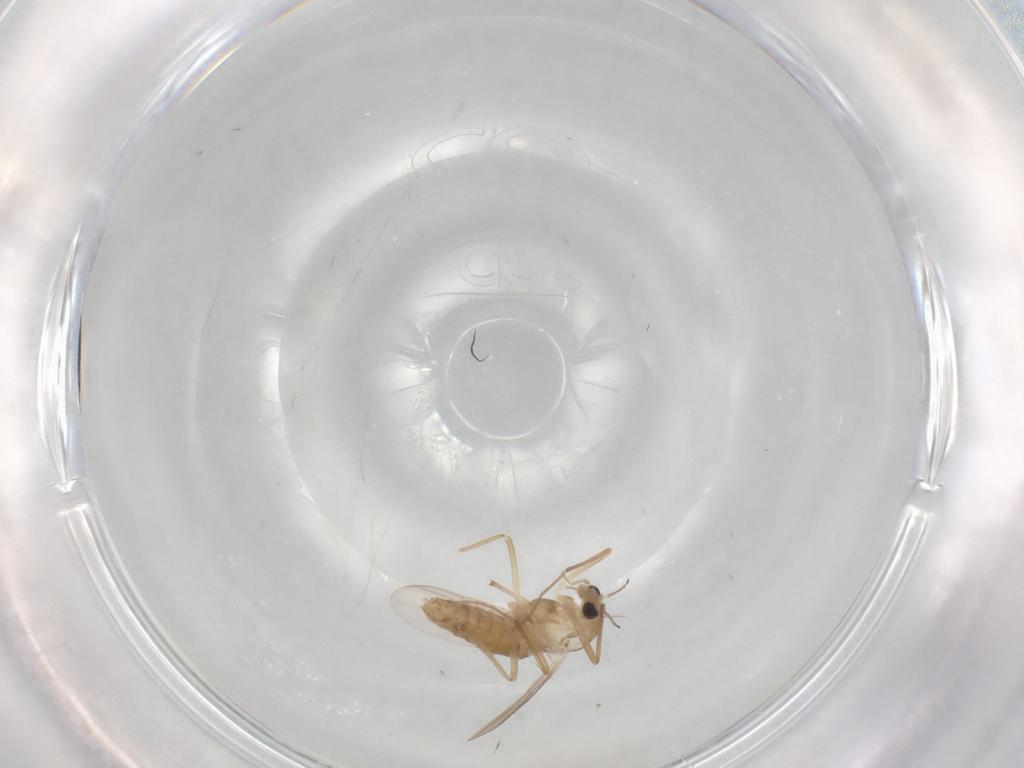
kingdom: Animalia
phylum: Arthropoda
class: Insecta
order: Diptera
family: Chironomidae
